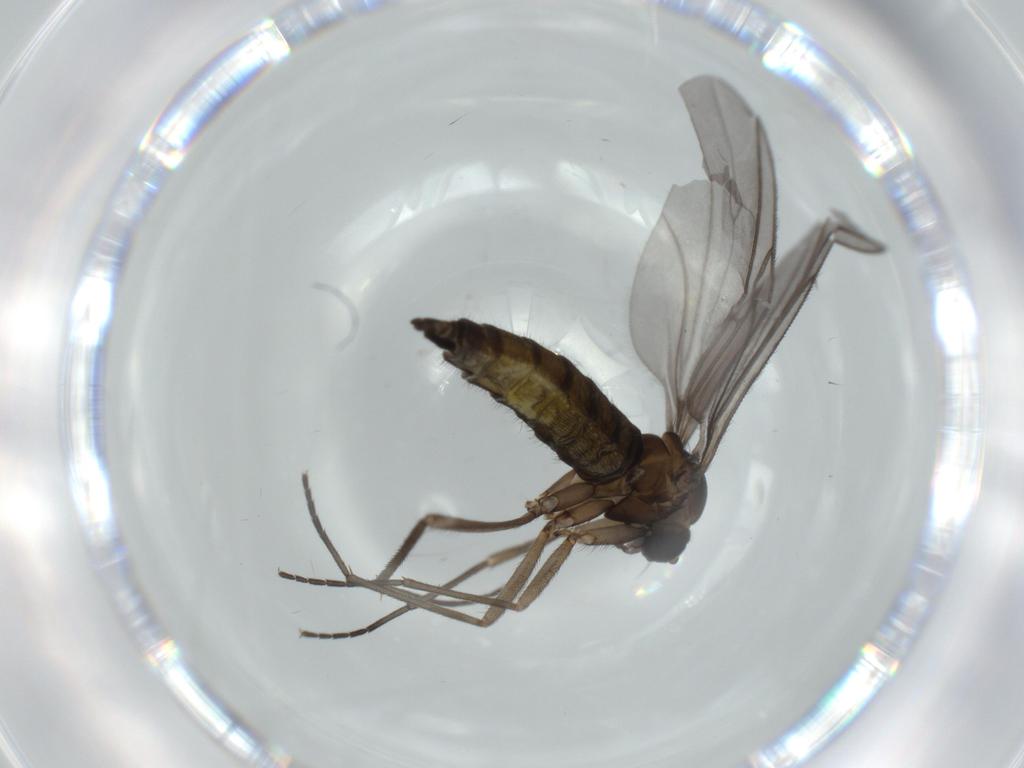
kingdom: Animalia
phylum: Arthropoda
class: Insecta
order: Diptera
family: Sciaridae
